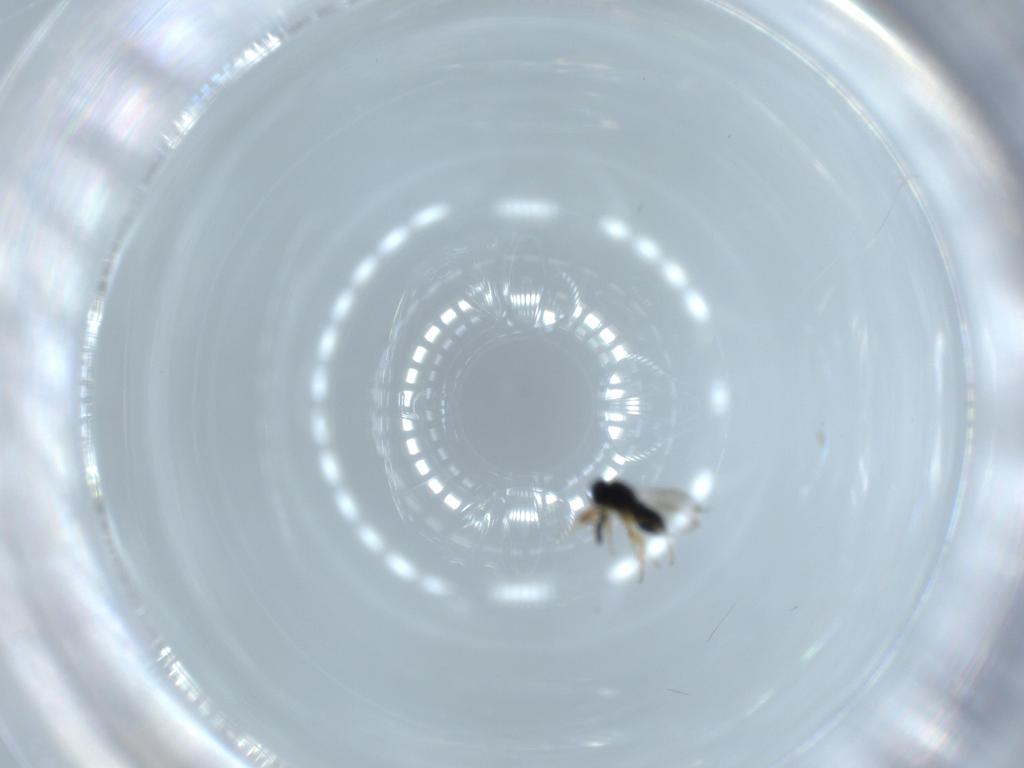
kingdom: Animalia
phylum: Arthropoda
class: Insecta
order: Hymenoptera
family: Scelionidae
